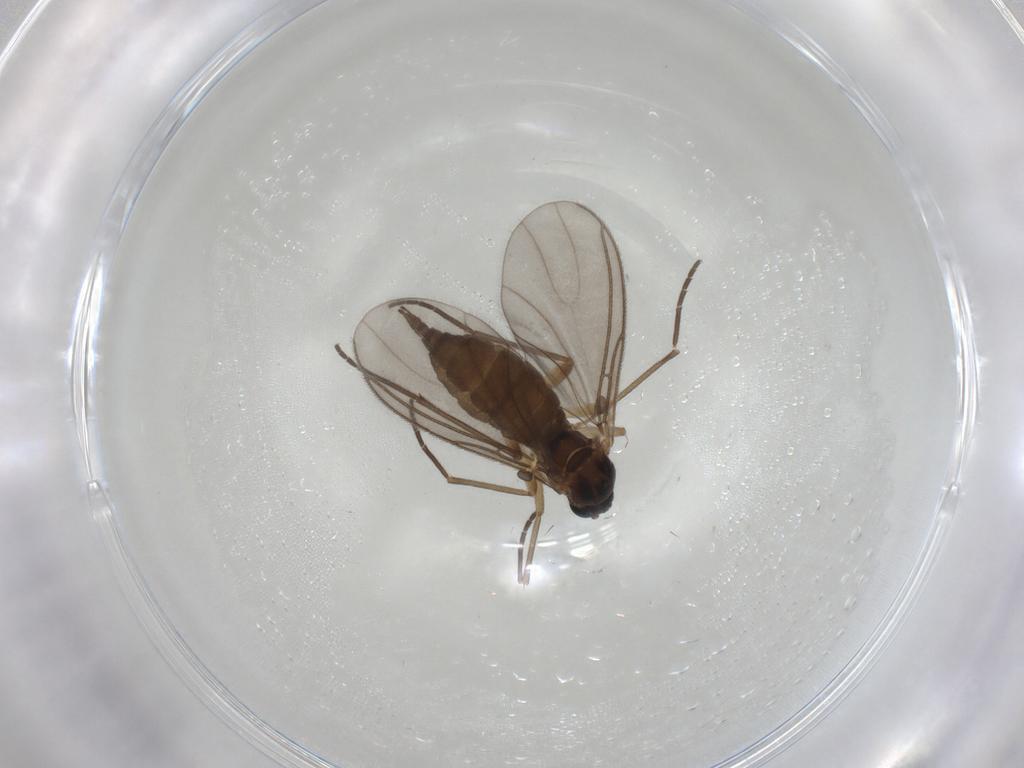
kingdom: Animalia
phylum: Arthropoda
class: Insecta
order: Diptera
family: Sciaridae
